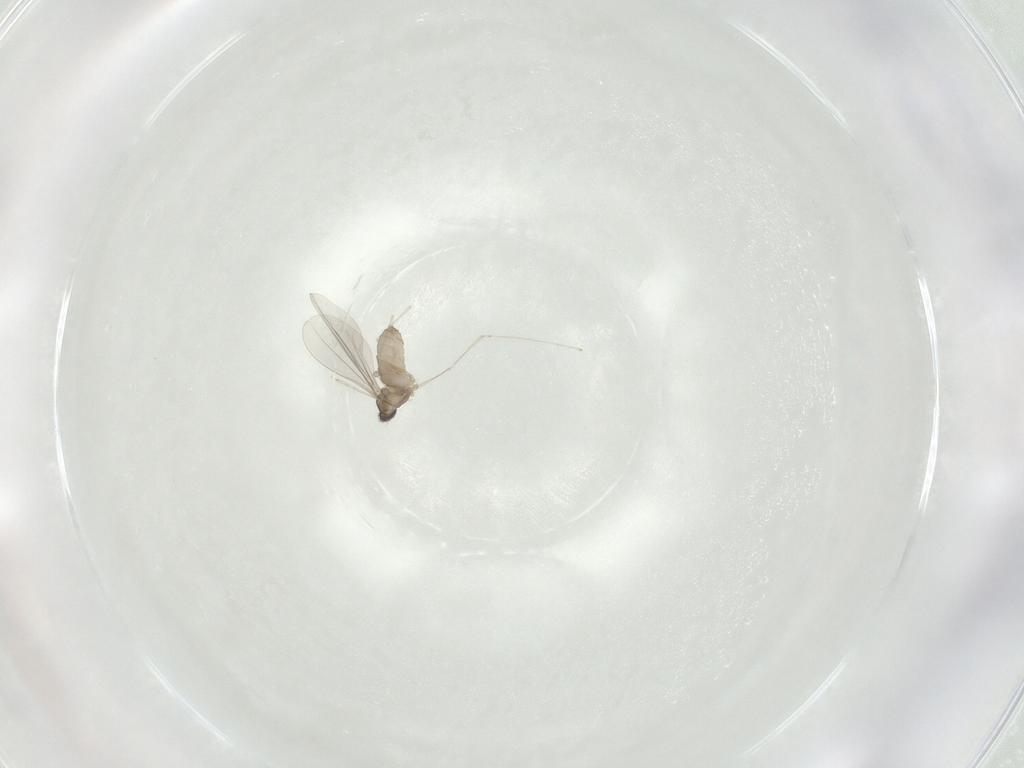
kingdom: Animalia
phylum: Arthropoda
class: Insecta
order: Diptera
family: Cecidomyiidae
